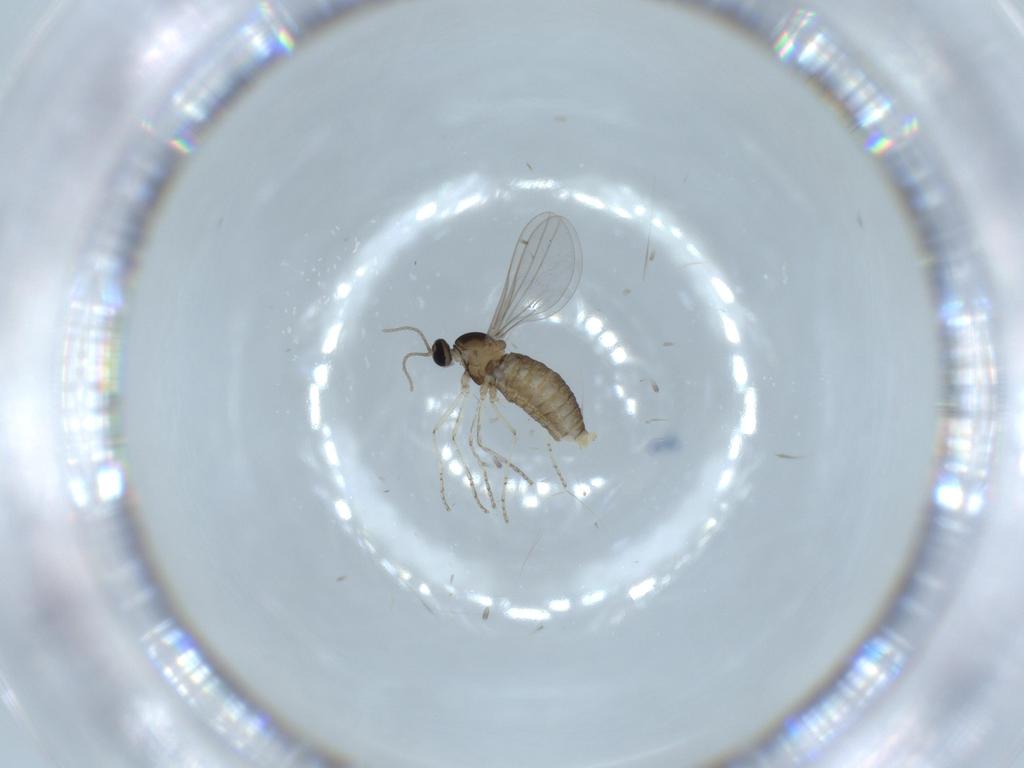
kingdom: Animalia
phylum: Arthropoda
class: Insecta
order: Diptera
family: Cecidomyiidae
